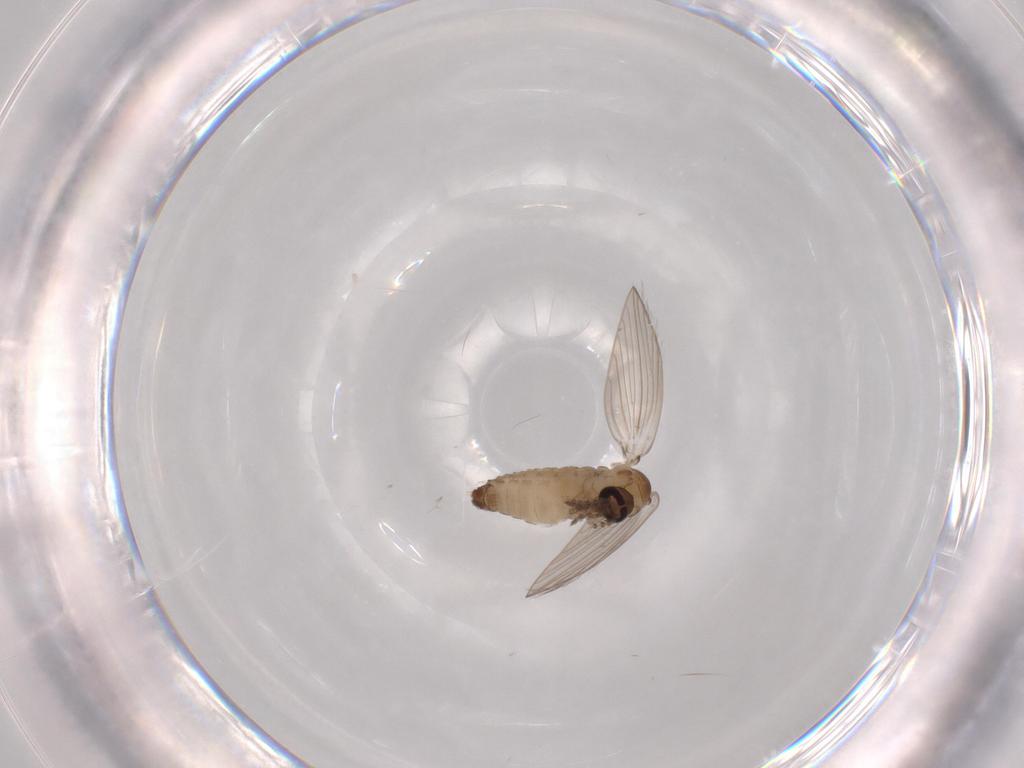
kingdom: Animalia
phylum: Arthropoda
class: Insecta
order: Diptera
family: Psychodidae
